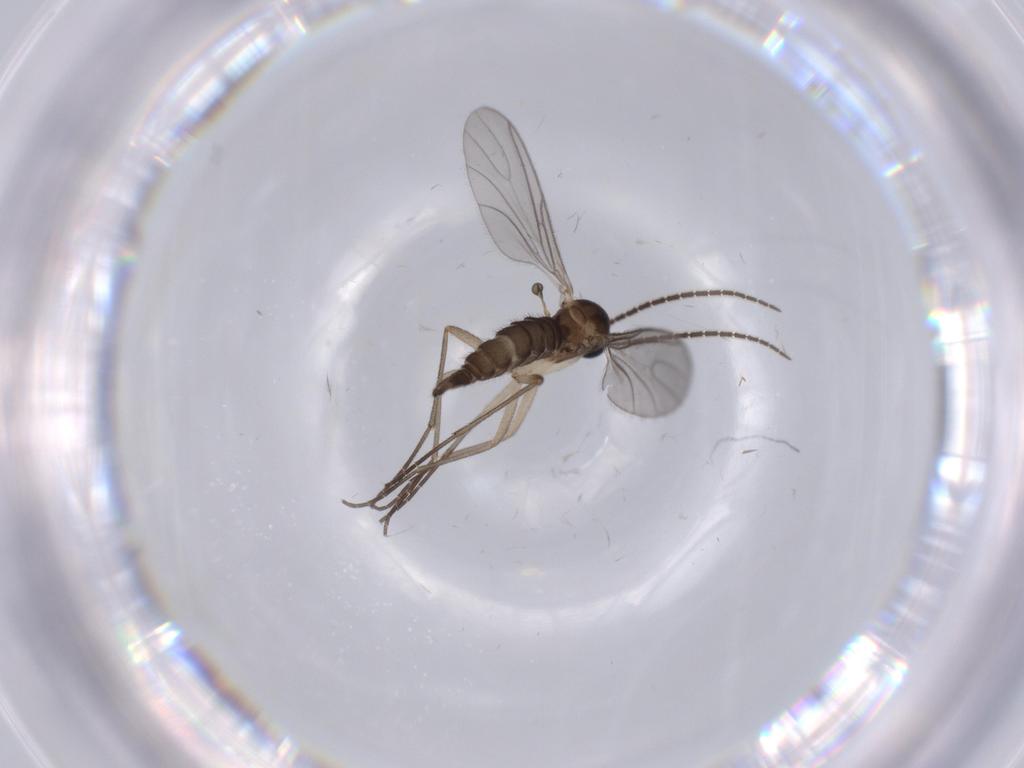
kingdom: Animalia
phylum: Arthropoda
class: Insecta
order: Diptera
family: Sciaridae
